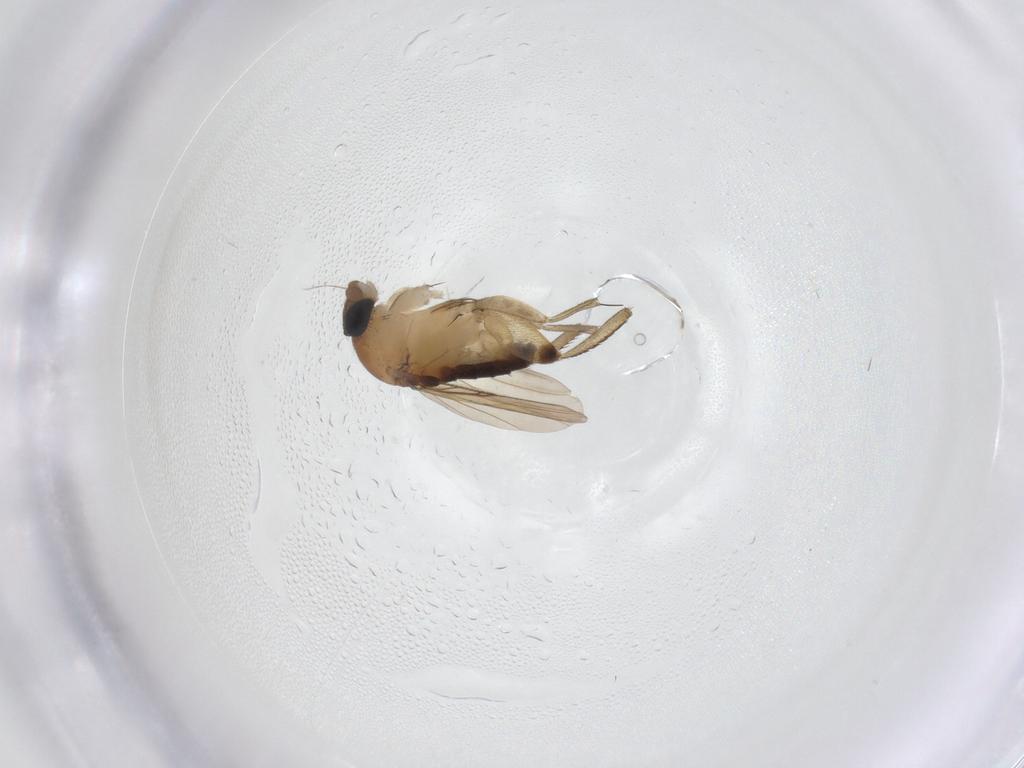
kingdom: Animalia
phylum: Arthropoda
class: Insecta
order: Diptera
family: Phoridae
